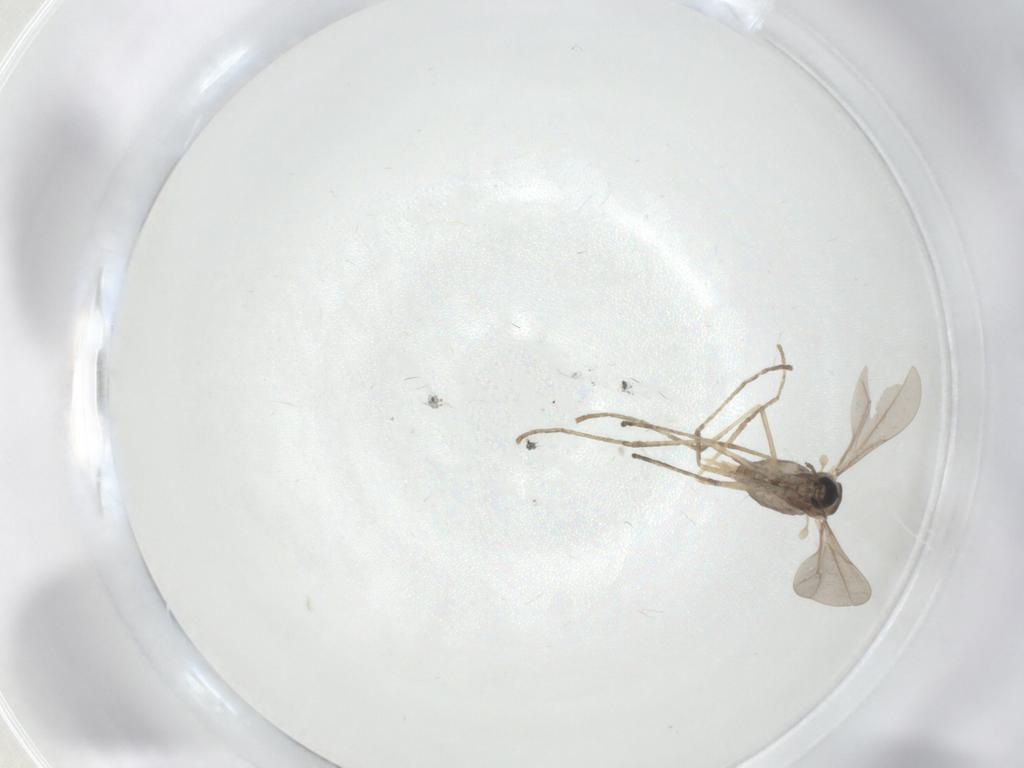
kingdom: Animalia
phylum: Arthropoda
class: Insecta
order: Diptera
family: Cecidomyiidae
